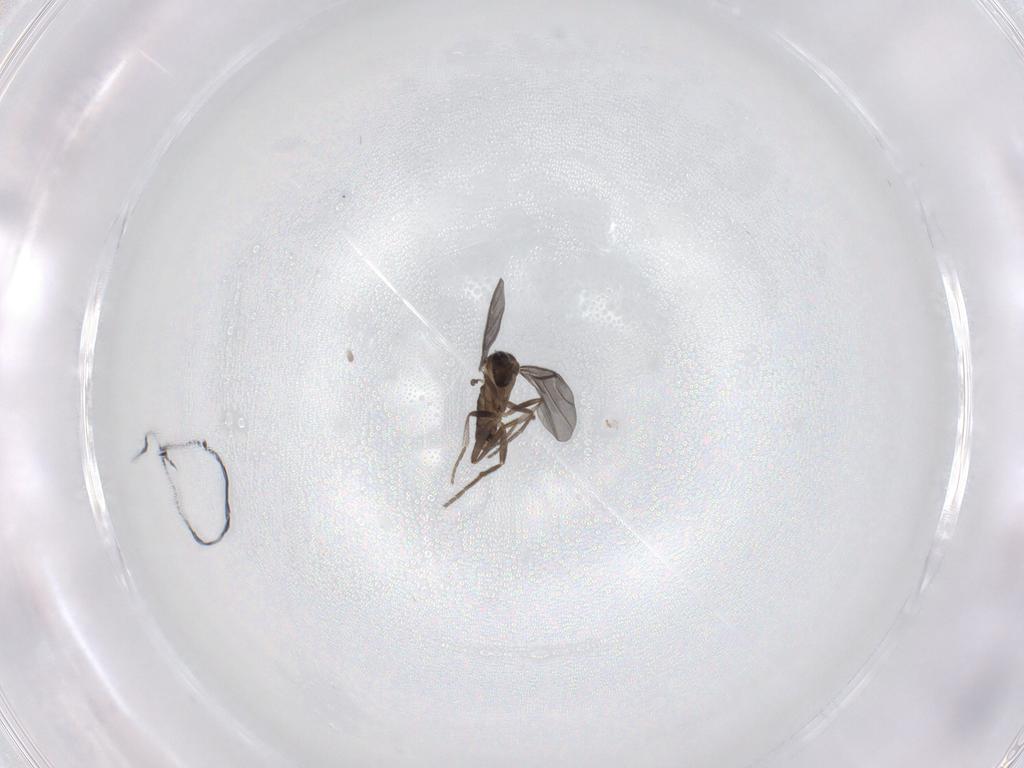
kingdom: Animalia
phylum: Arthropoda
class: Insecta
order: Diptera
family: Phoridae
